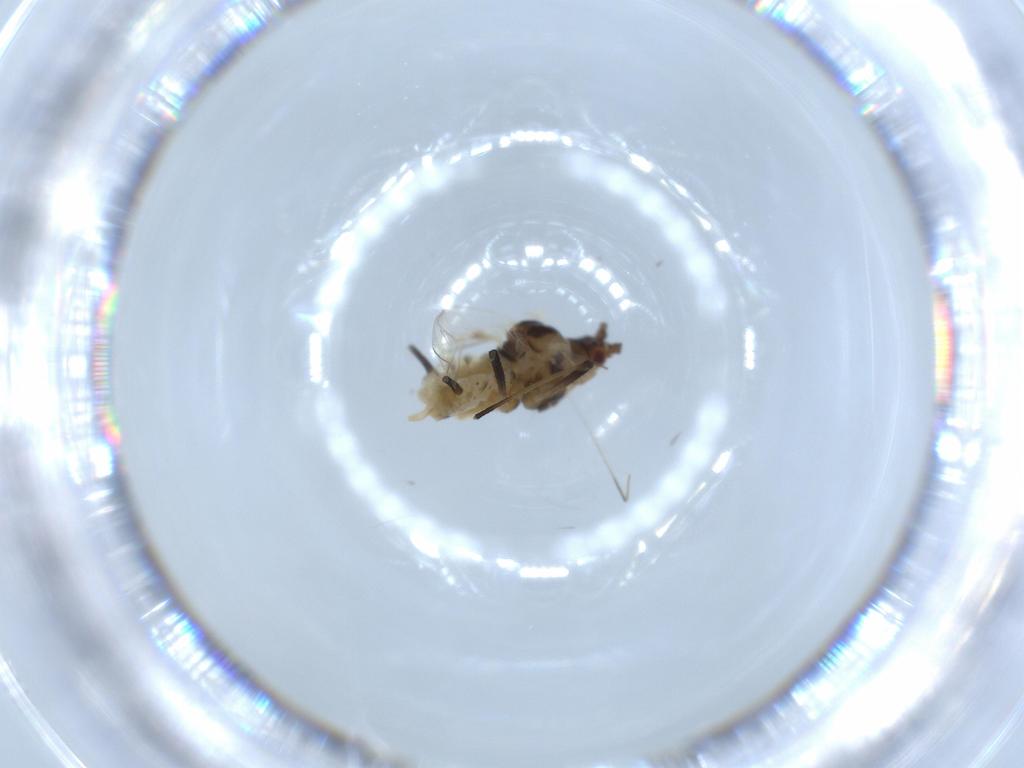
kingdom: Animalia
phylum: Arthropoda
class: Insecta
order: Hemiptera
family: Aphididae
